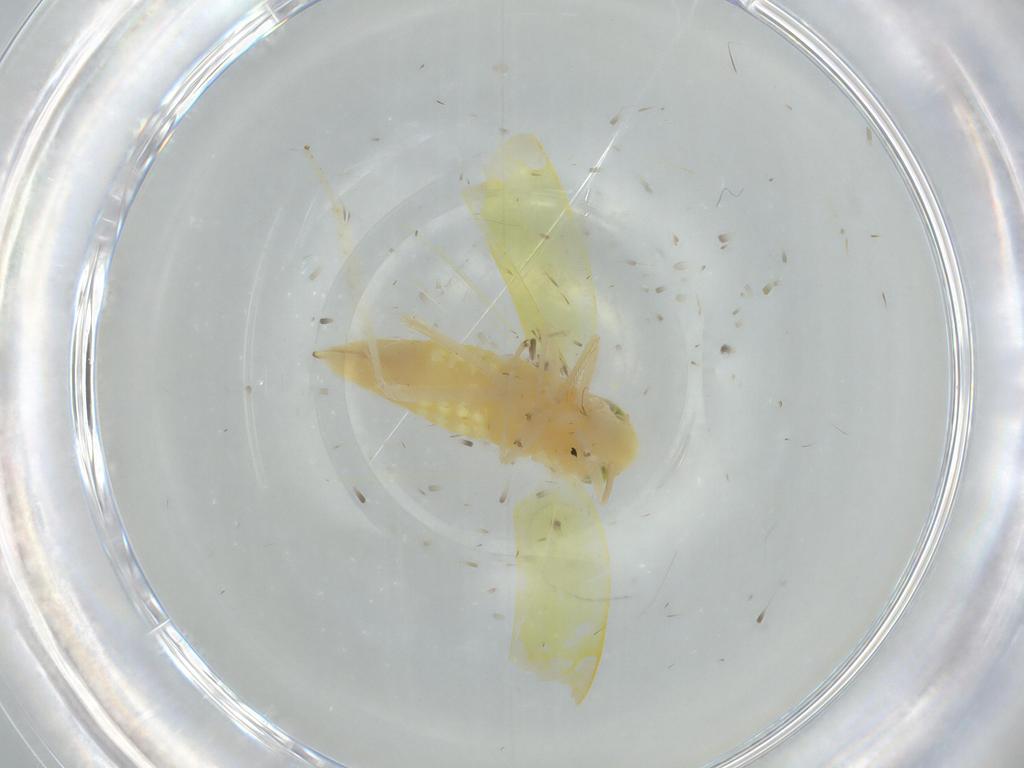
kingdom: Animalia
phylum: Arthropoda
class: Insecta
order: Hemiptera
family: Cicadellidae
